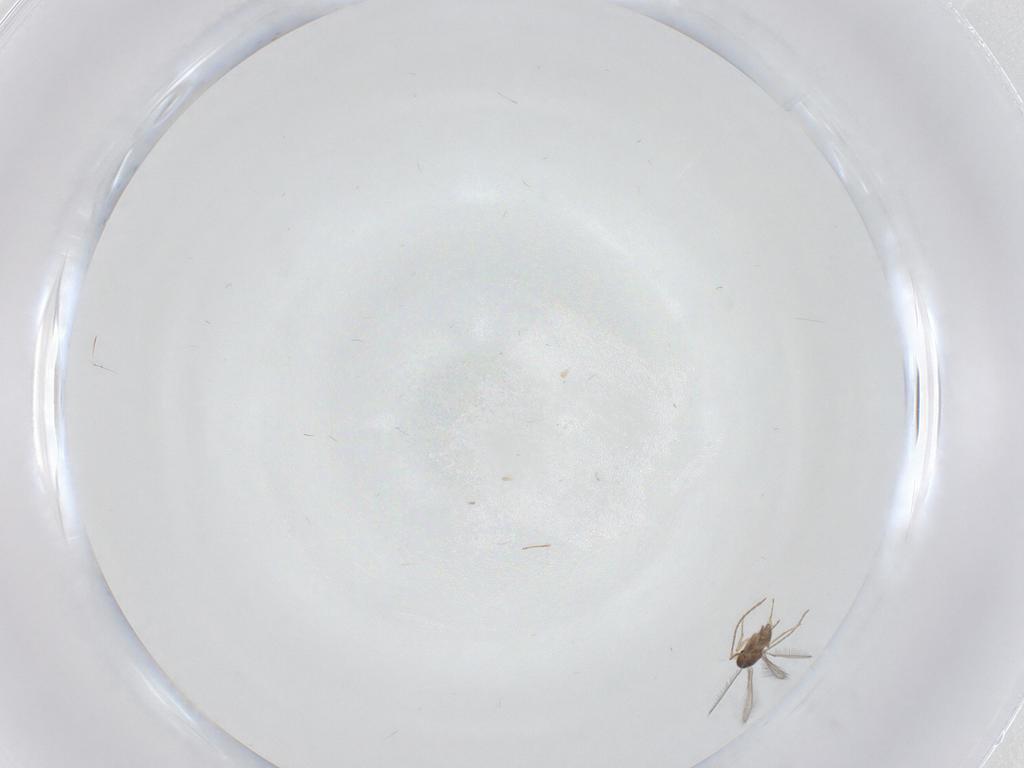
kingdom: Animalia
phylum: Arthropoda
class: Insecta
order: Hymenoptera
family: Mymaridae
